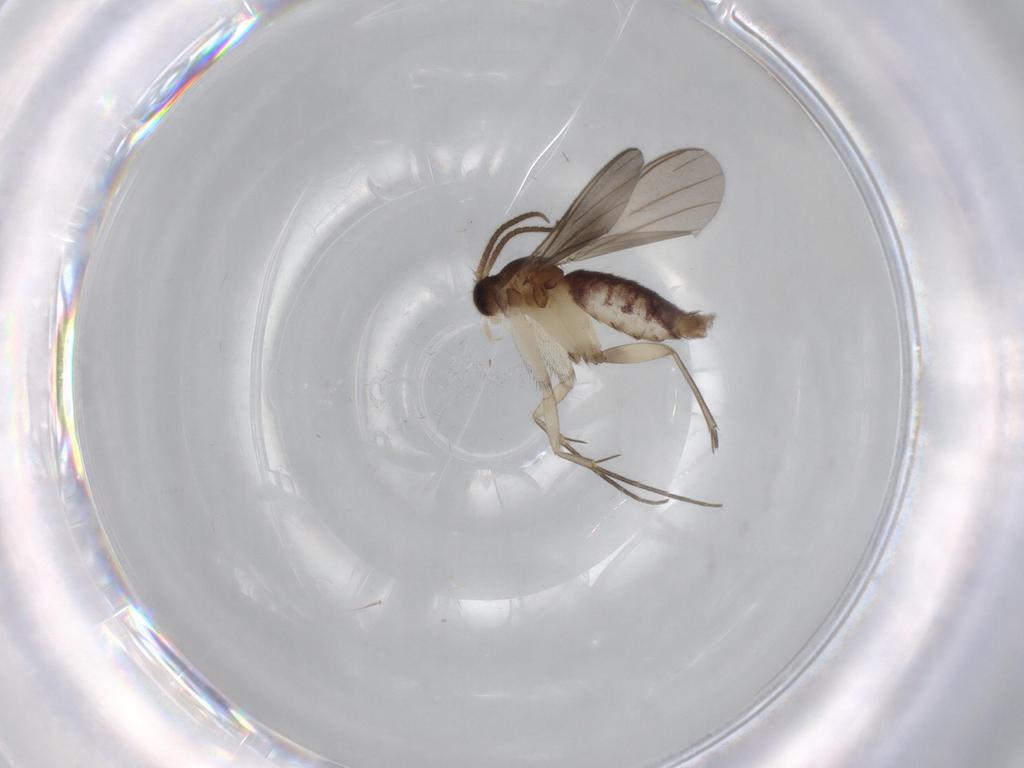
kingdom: Animalia
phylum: Arthropoda
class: Insecta
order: Diptera
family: Mycetophilidae
